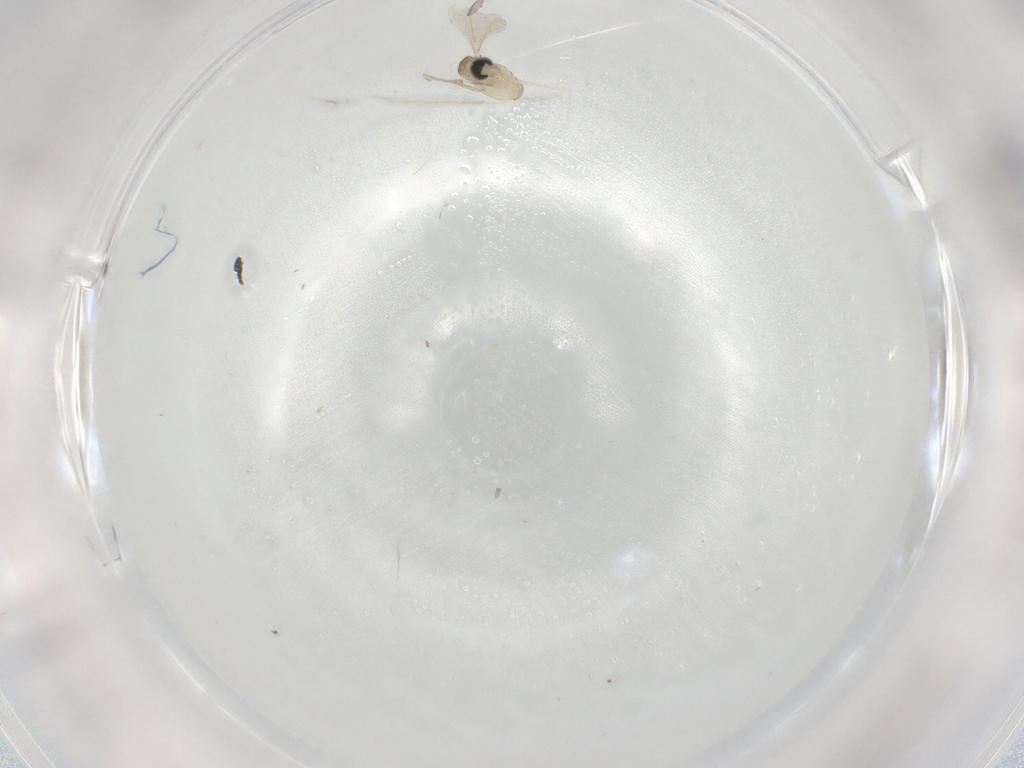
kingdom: Animalia
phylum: Arthropoda
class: Insecta
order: Diptera
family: Cecidomyiidae
